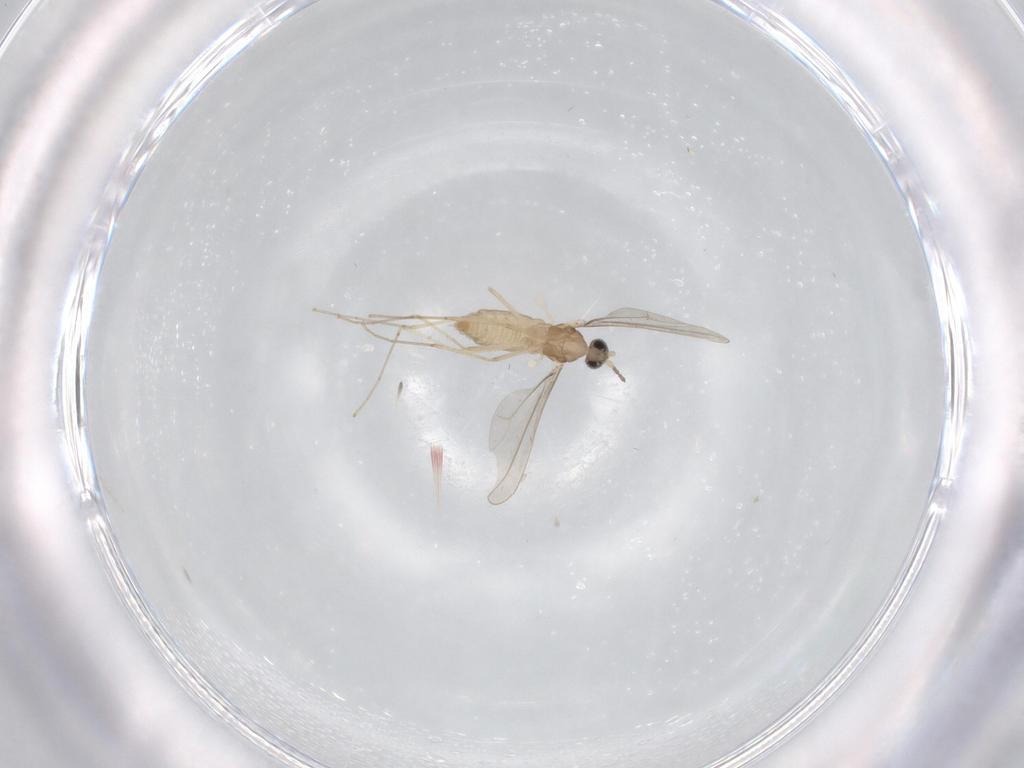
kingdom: Animalia
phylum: Arthropoda
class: Insecta
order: Diptera
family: Cecidomyiidae
